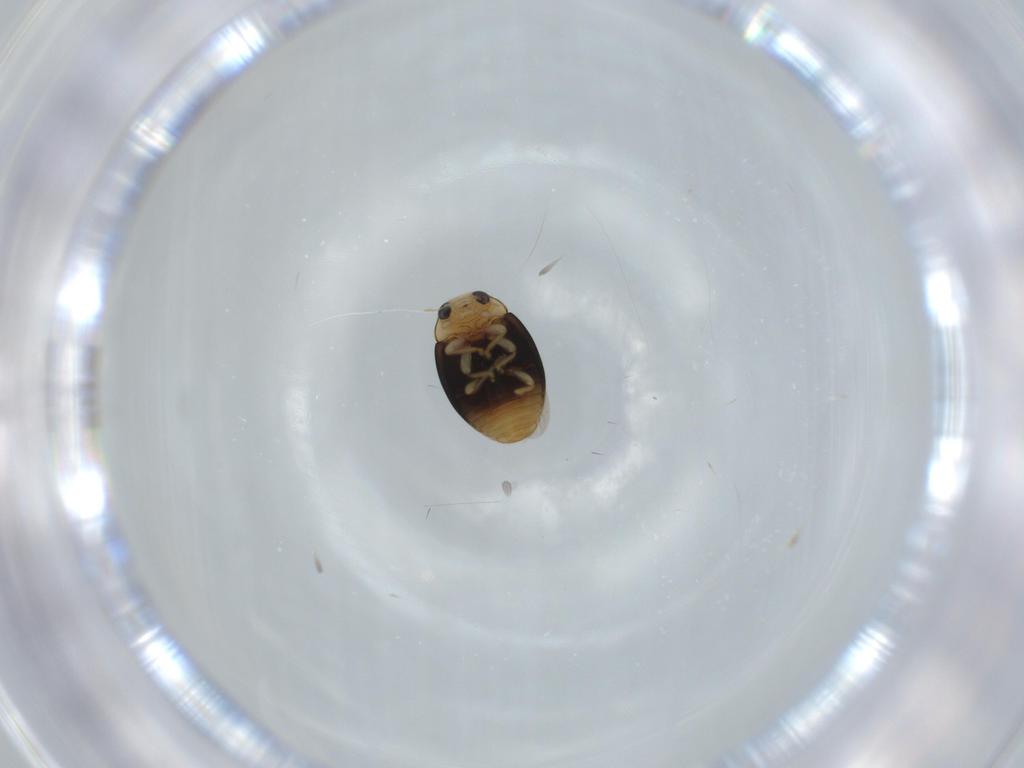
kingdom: Animalia
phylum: Arthropoda
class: Insecta
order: Coleoptera
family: Coccinellidae
